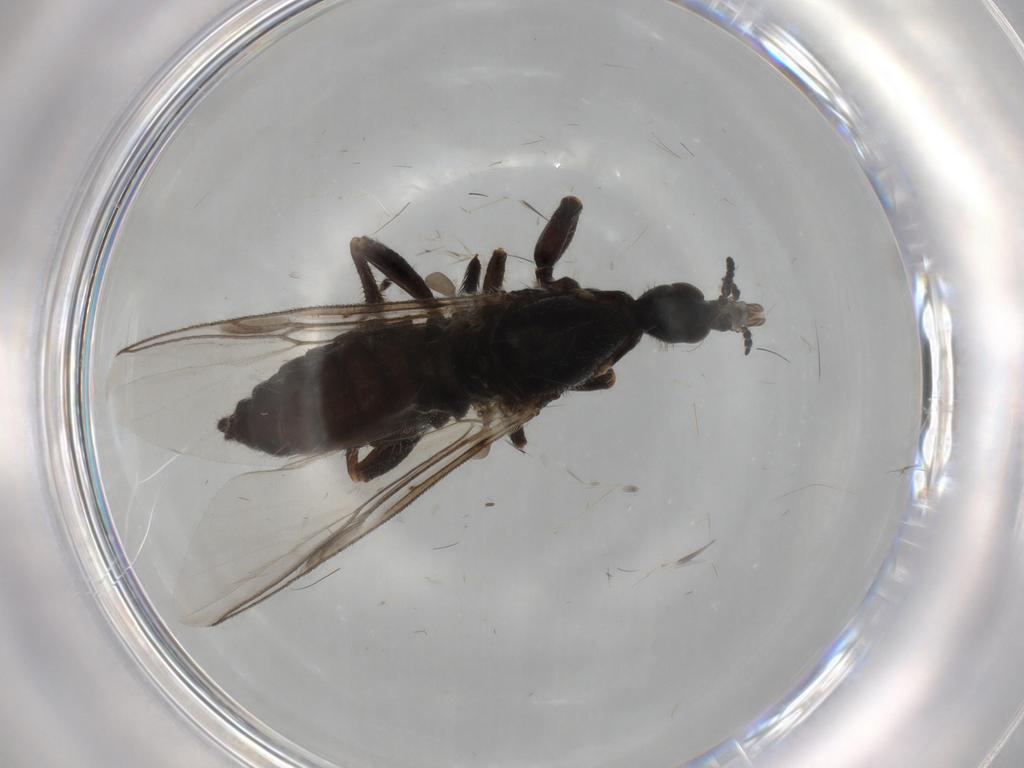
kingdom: Animalia
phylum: Arthropoda
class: Insecta
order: Diptera
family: Bibionidae
